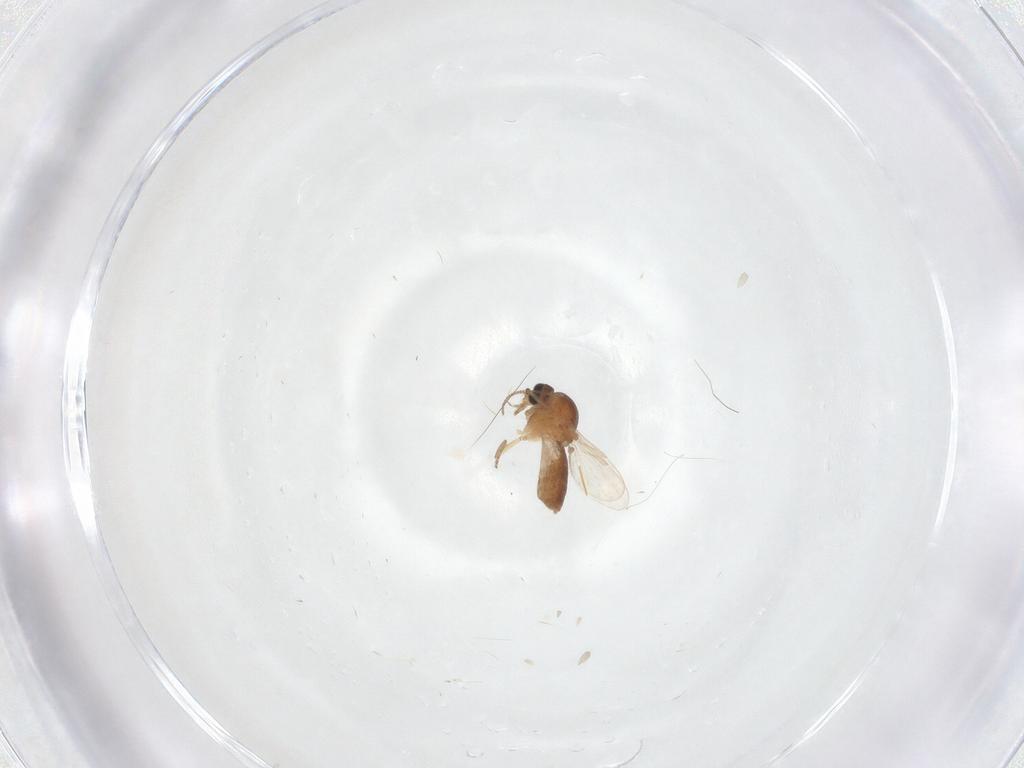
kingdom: Animalia
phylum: Arthropoda
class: Insecta
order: Diptera
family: Ceratopogonidae
